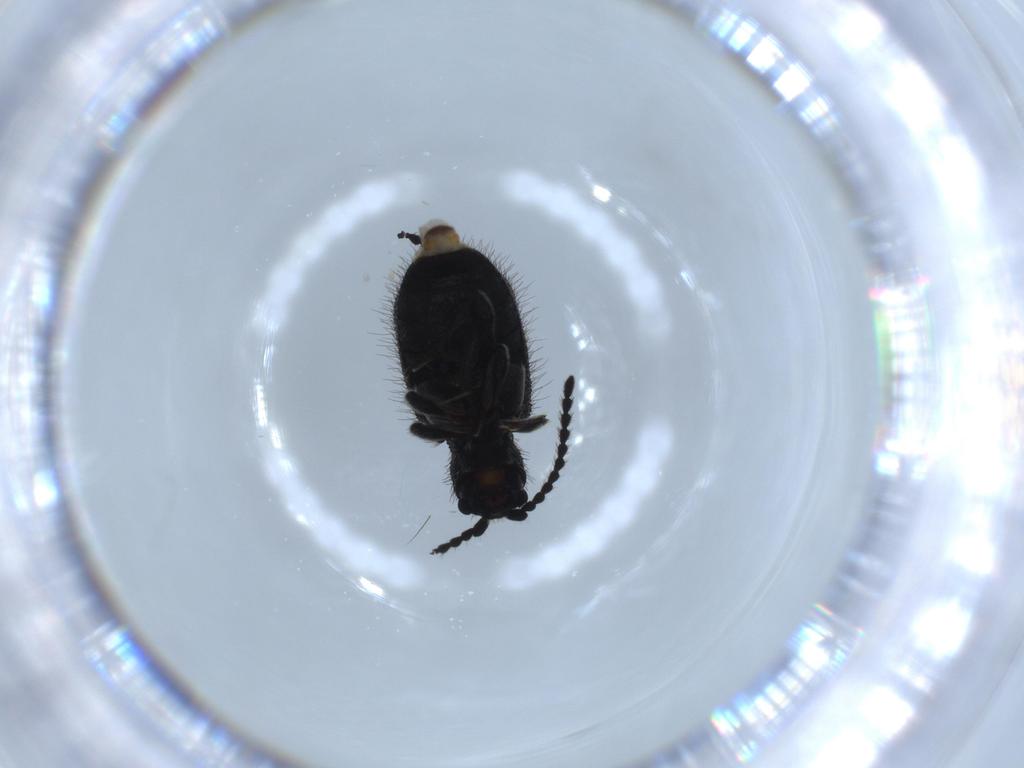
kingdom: Animalia
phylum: Arthropoda
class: Insecta
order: Coleoptera
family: Ptinidae
